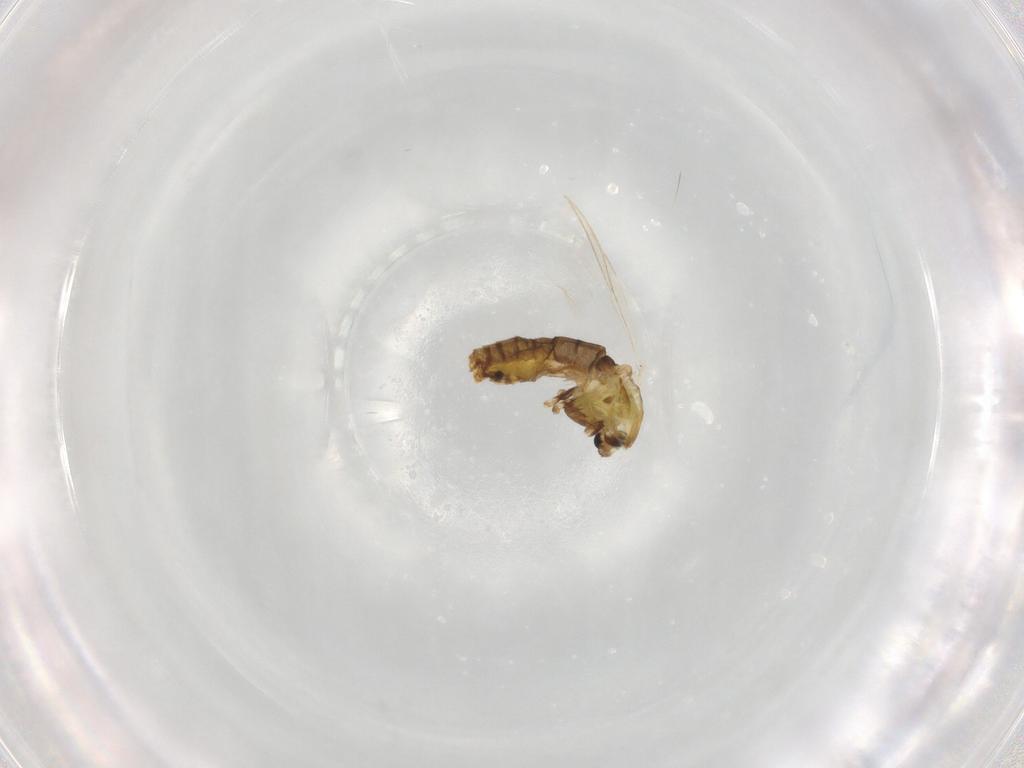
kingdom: Animalia
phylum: Arthropoda
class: Insecta
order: Diptera
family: Chironomidae
